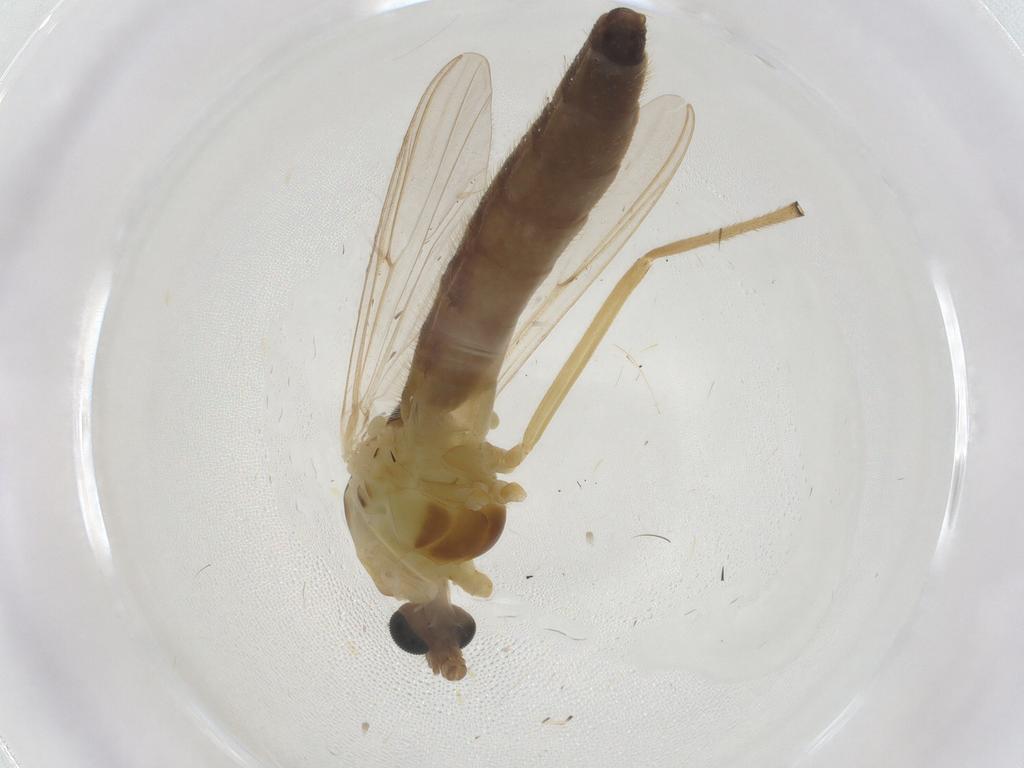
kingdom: Animalia
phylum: Arthropoda
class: Insecta
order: Diptera
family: Chironomidae
